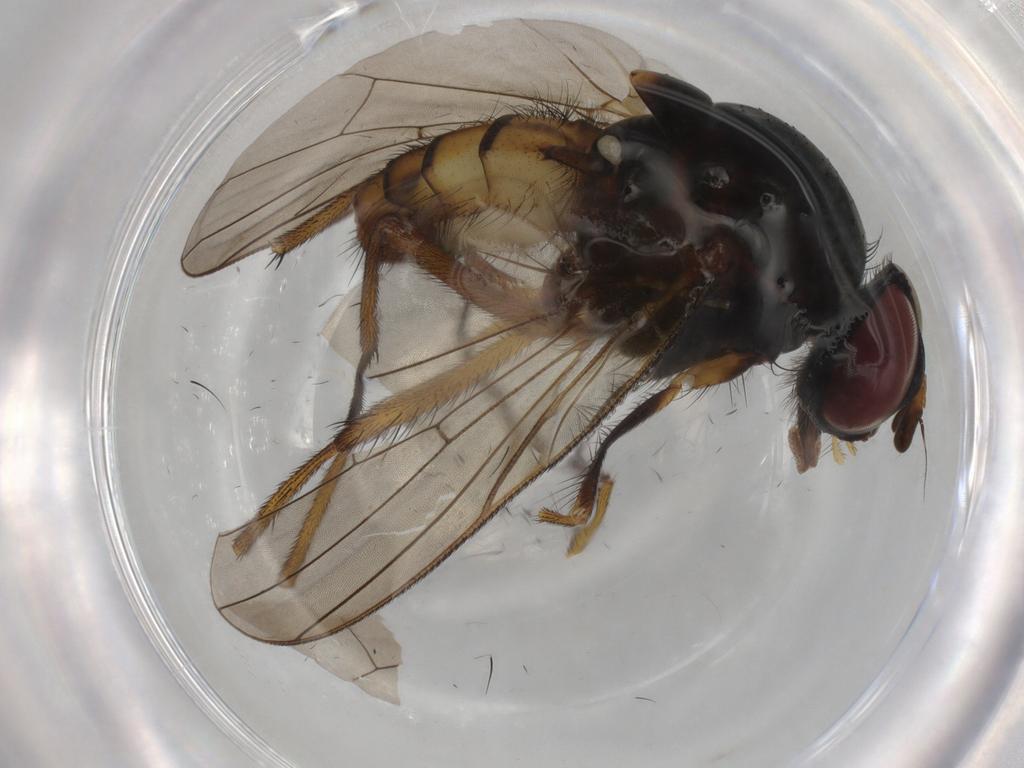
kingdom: Animalia
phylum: Arthropoda
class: Insecta
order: Diptera
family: Anthomyiidae
